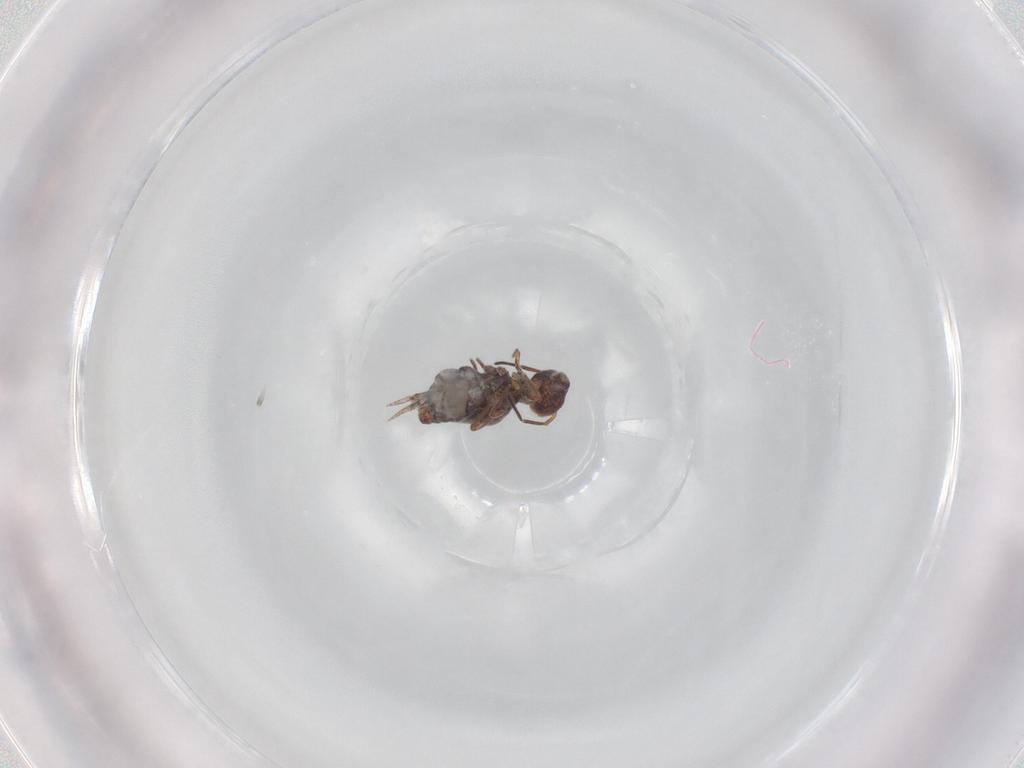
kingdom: Animalia
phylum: Arthropoda
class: Collembola
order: Symphypleona
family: Bourletiellidae
